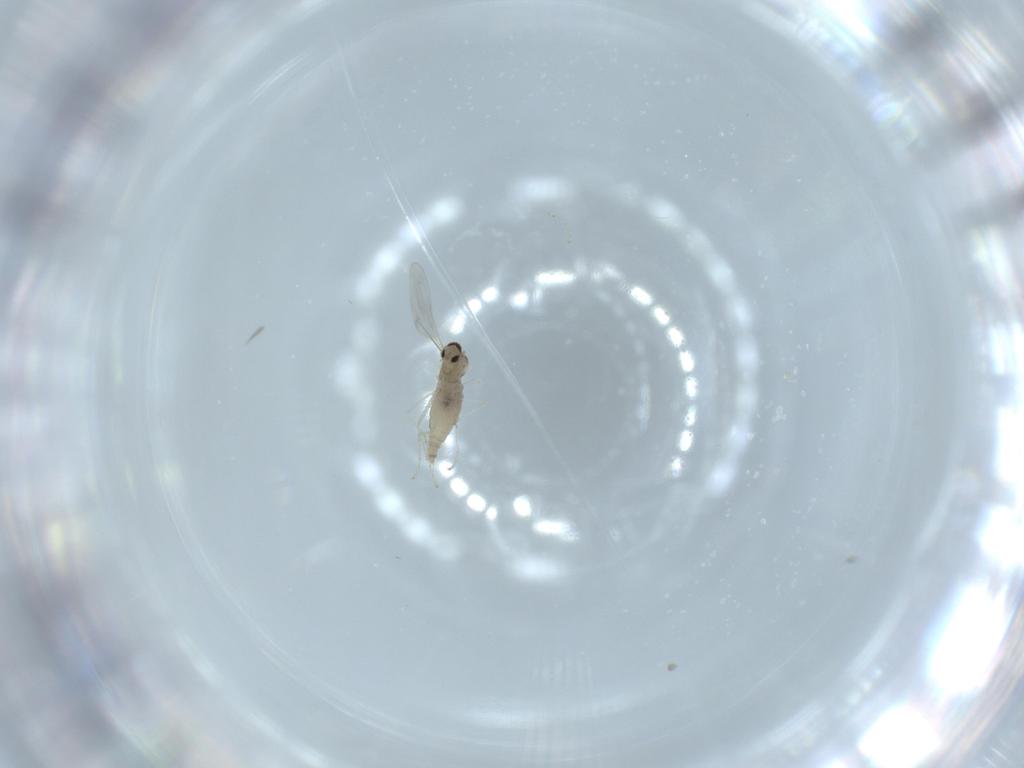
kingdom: Animalia
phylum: Arthropoda
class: Insecta
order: Diptera
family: Cecidomyiidae
